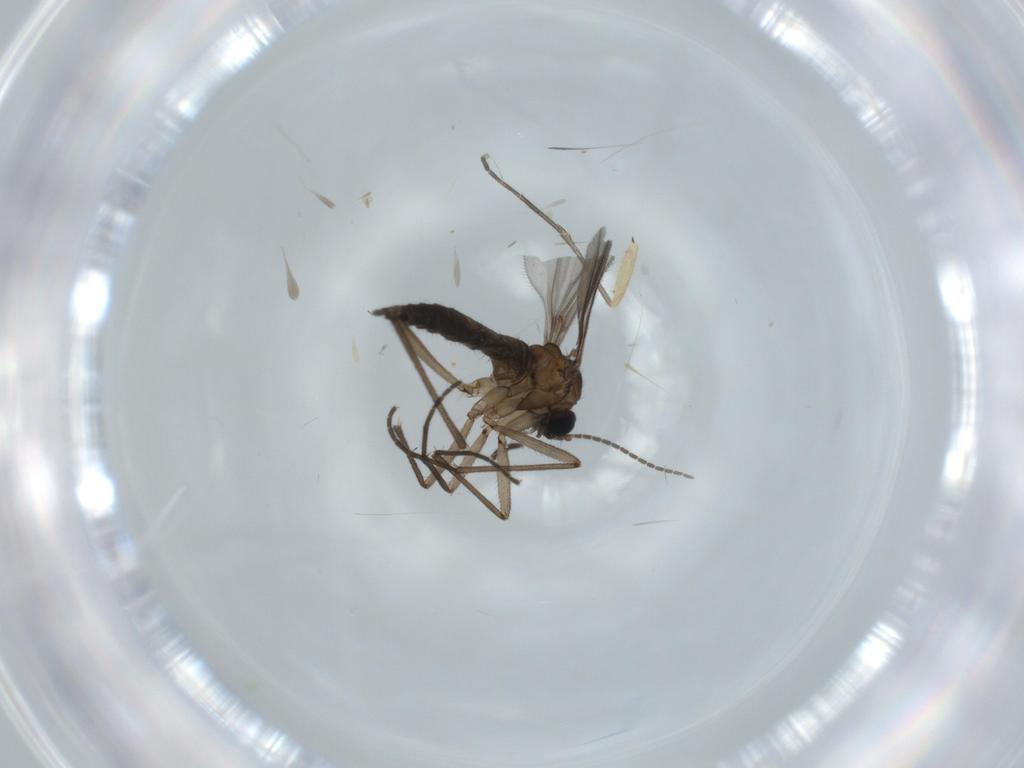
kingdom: Animalia
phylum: Arthropoda
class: Insecta
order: Diptera
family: Sciaridae
